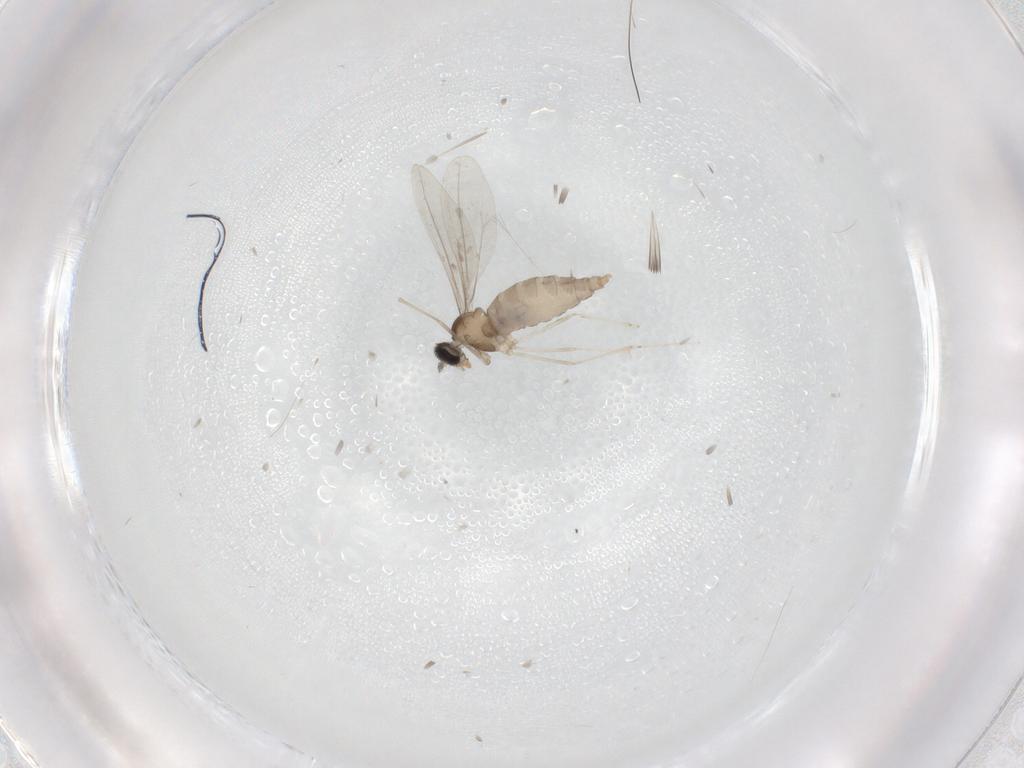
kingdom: Animalia
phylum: Arthropoda
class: Insecta
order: Diptera
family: Cecidomyiidae
